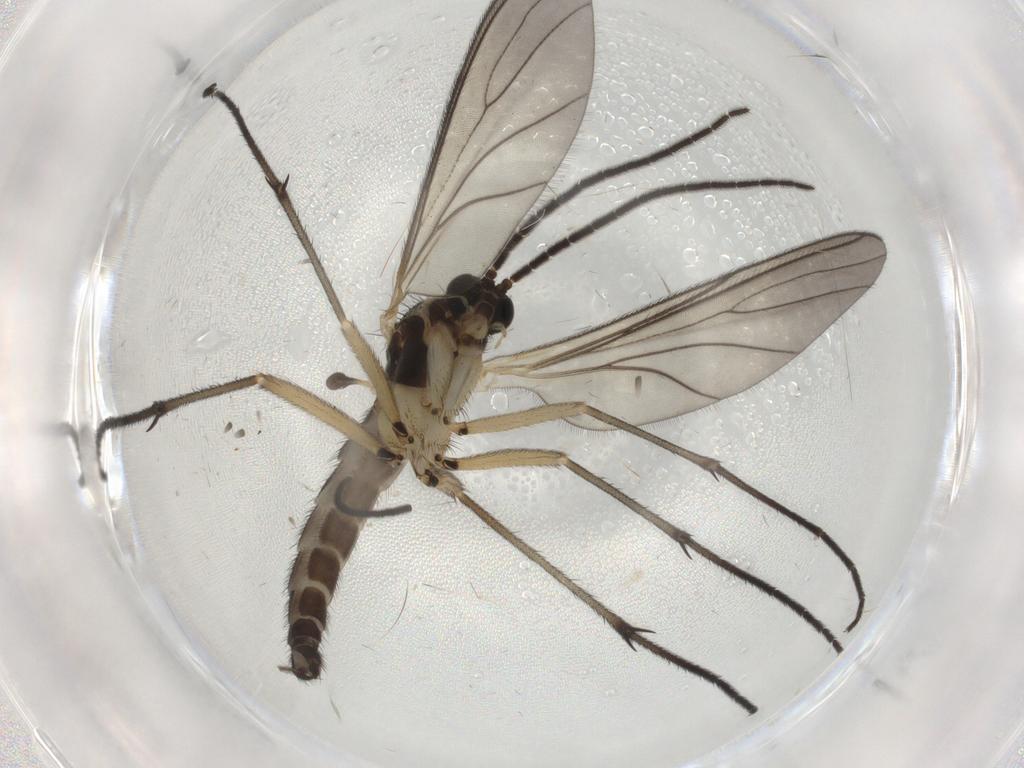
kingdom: Animalia
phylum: Arthropoda
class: Insecta
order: Diptera
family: Sciaridae
